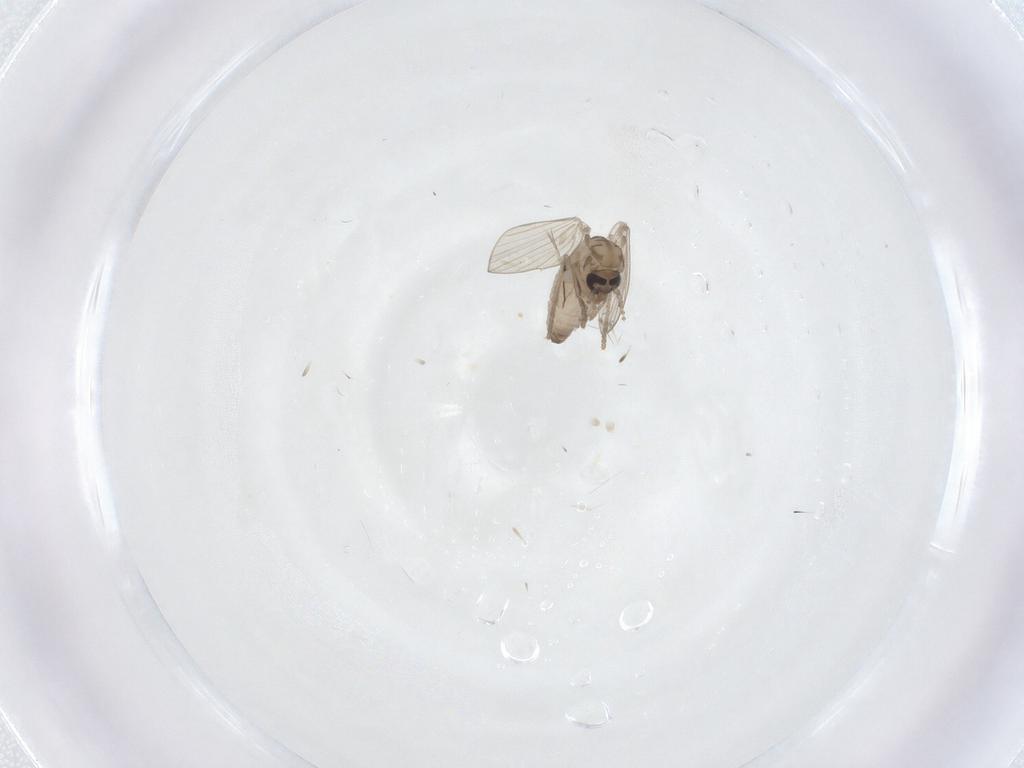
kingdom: Animalia
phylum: Arthropoda
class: Insecta
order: Diptera
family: Psychodidae
